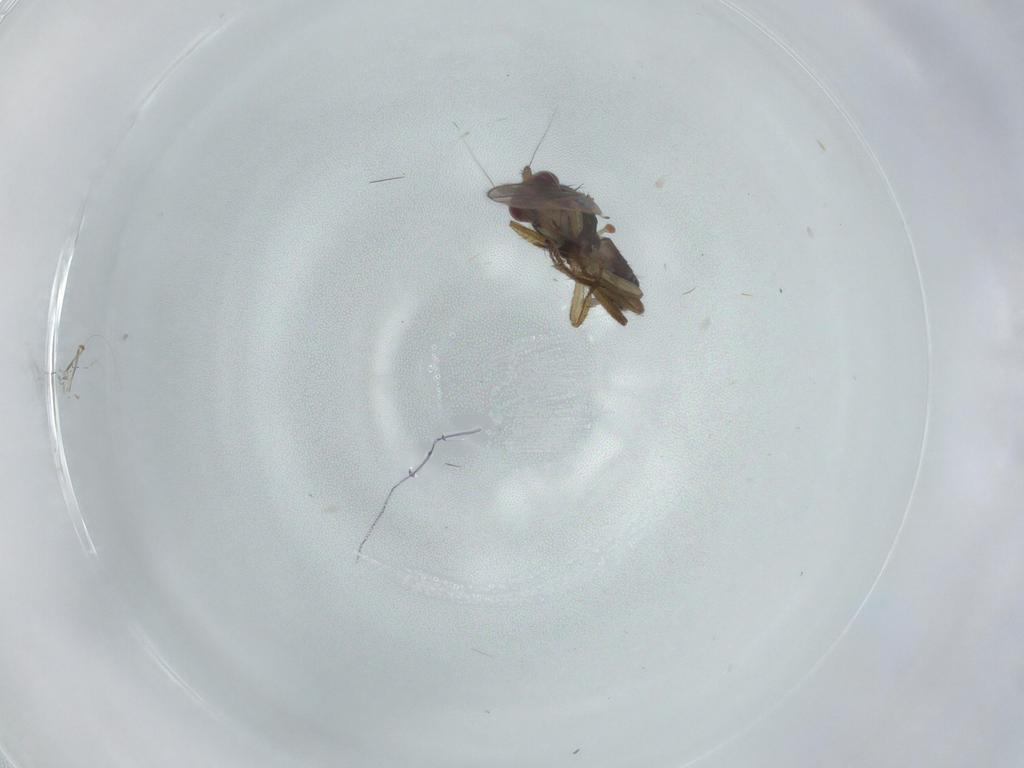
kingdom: Animalia
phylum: Arthropoda
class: Insecta
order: Diptera
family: Sphaeroceridae
